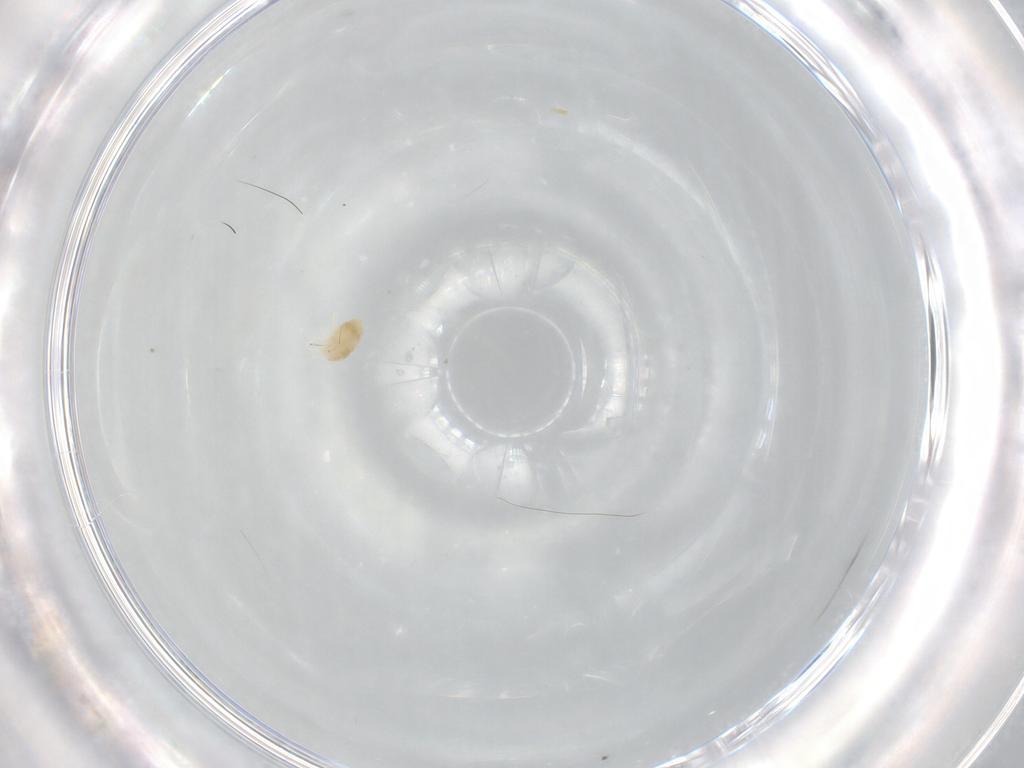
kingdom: Animalia
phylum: Arthropoda
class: Arachnida
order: Trombidiformes
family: Eupodidae
